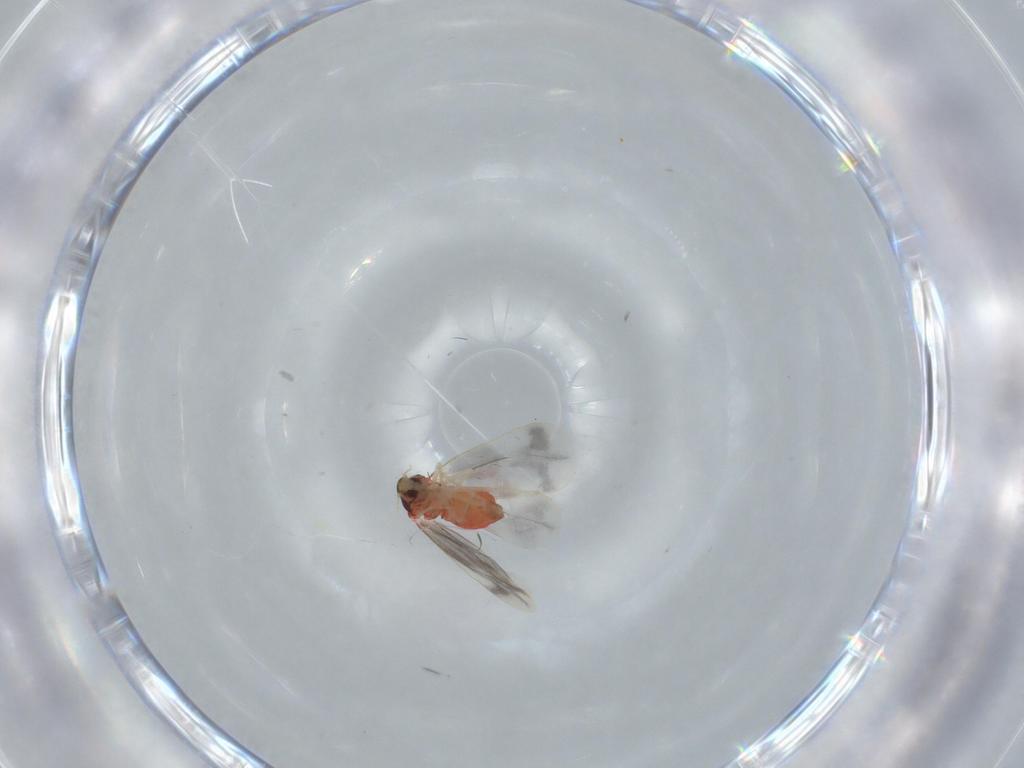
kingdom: Animalia
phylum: Arthropoda
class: Insecta
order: Hemiptera
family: Aleyrodidae
